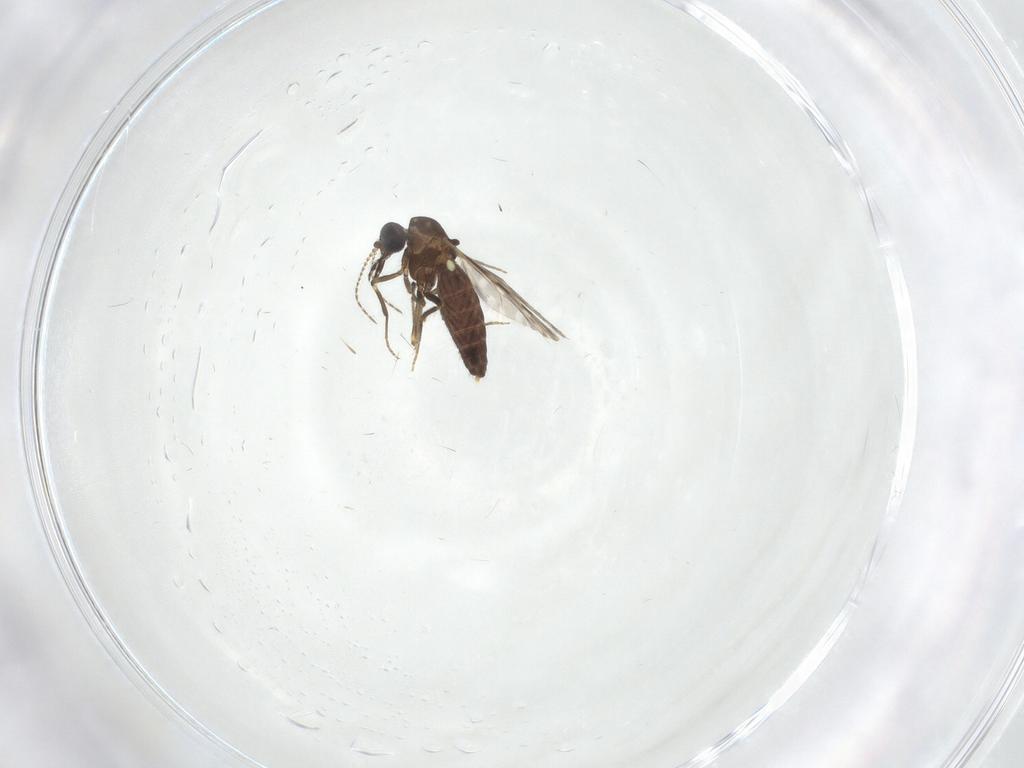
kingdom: Animalia
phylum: Arthropoda
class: Insecta
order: Diptera
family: Ceratopogonidae
